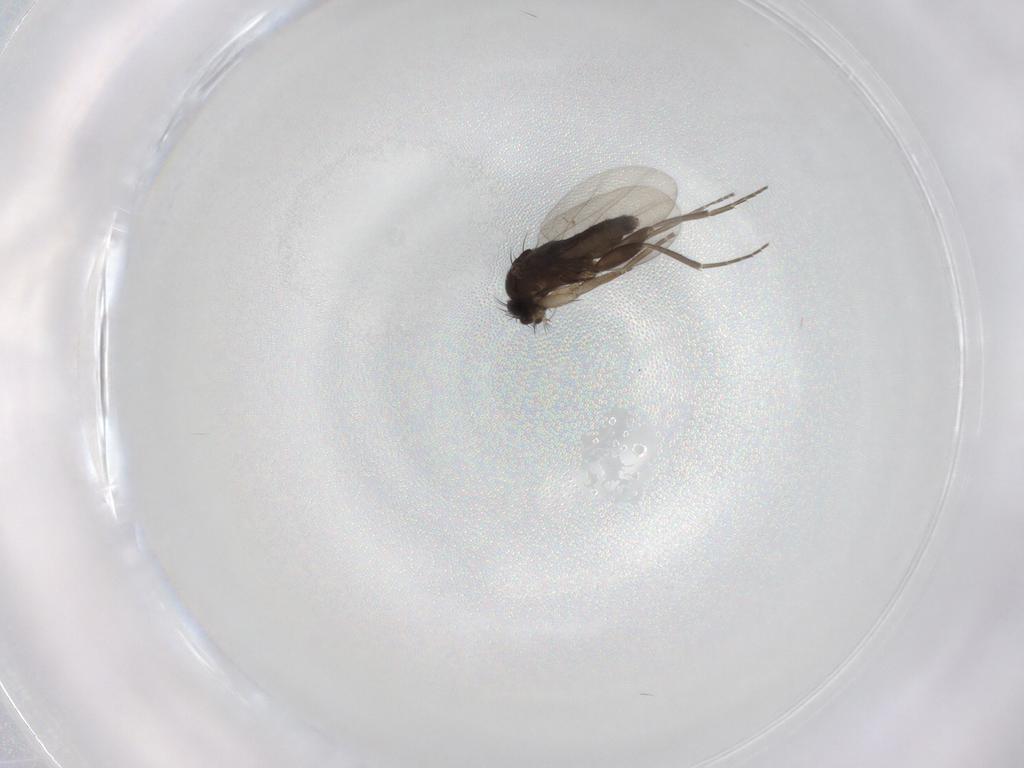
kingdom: Animalia
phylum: Arthropoda
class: Insecta
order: Diptera
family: Phoridae
